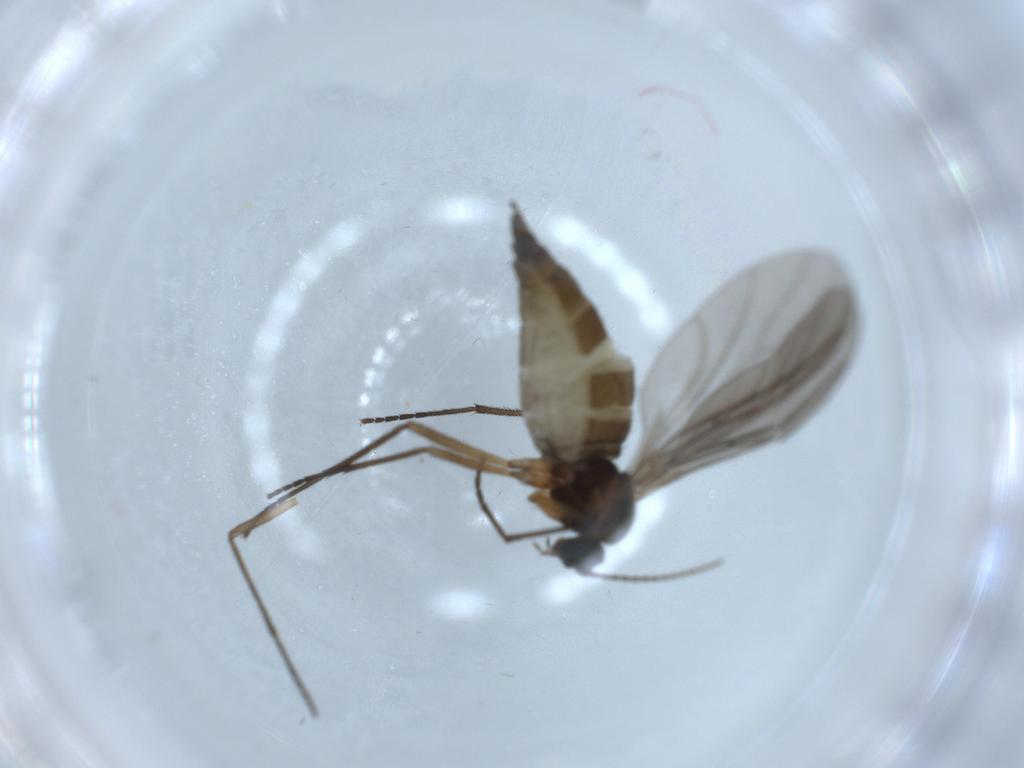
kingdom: Animalia
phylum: Arthropoda
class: Insecta
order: Diptera
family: Sciaridae
